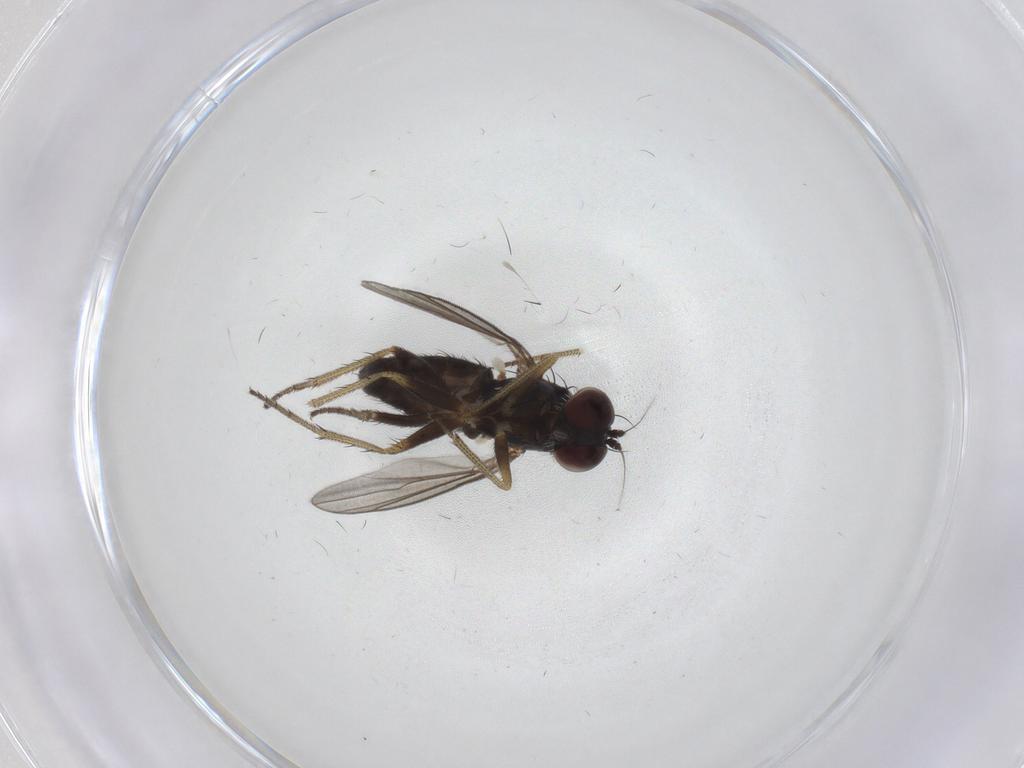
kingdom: Animalia
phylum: Arthropoda
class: Insecta
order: Diptera
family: Dolichopodidae
